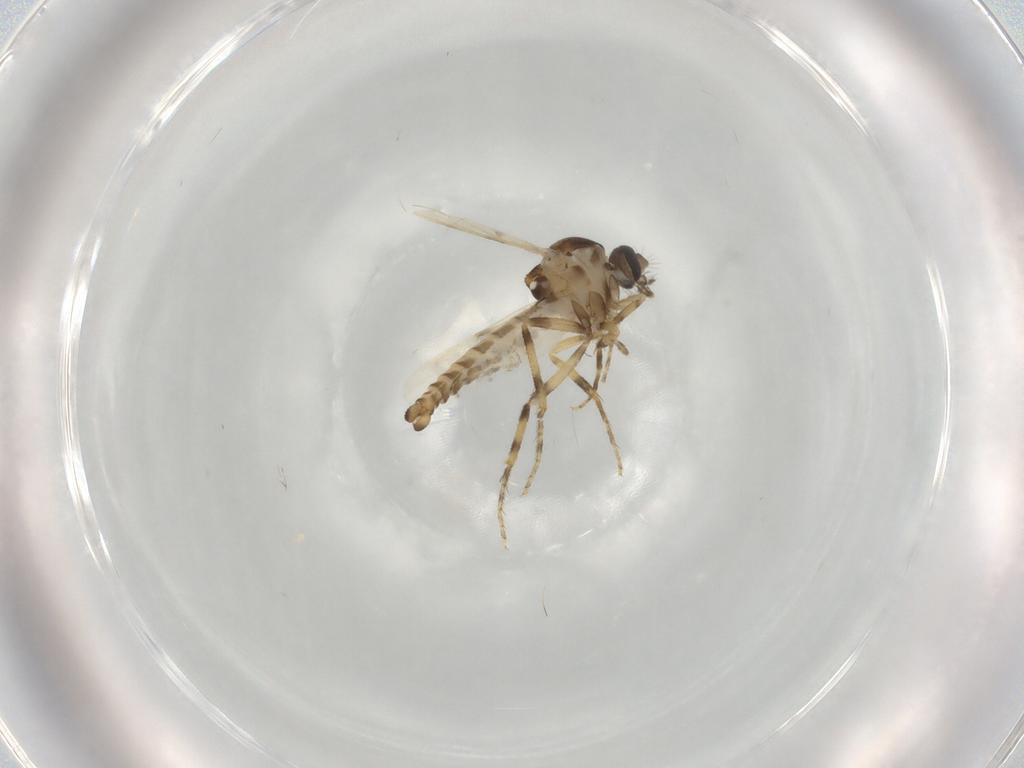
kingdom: Animalia
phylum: Arthropoda
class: Insecta
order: Diptera
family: Ceratopogonidae
